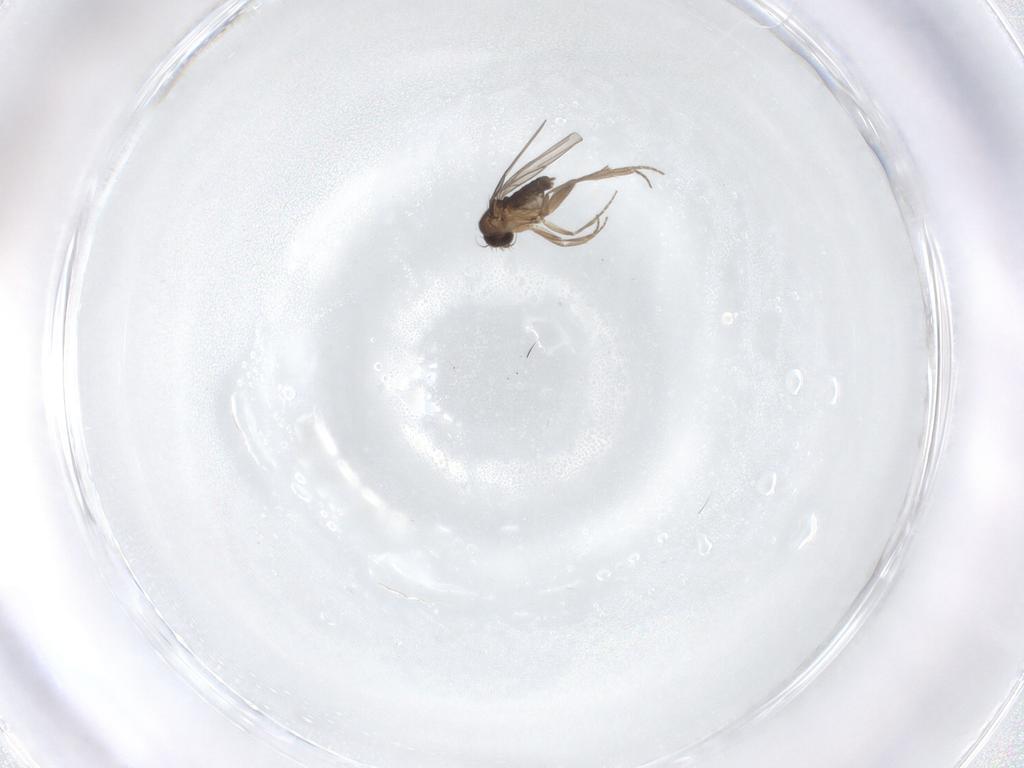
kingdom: Animalia
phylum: Arthropoda
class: Insecta
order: Diptera
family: Phoridae
